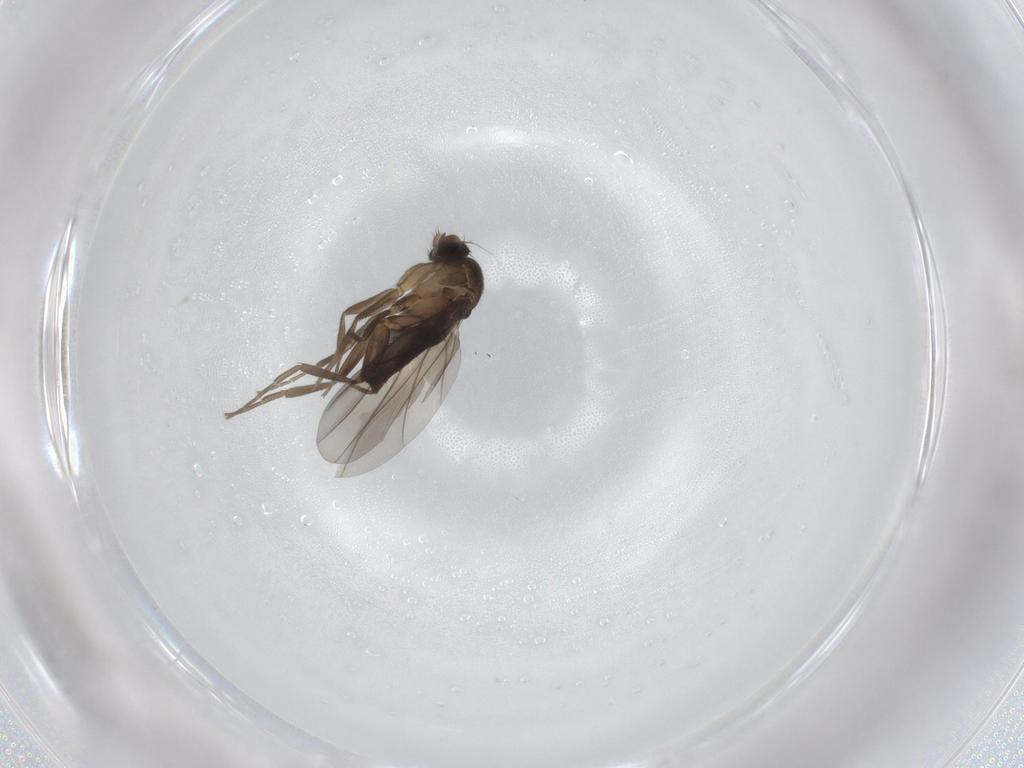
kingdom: Animalia
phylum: Arthropoda
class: Insecta
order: Diptera
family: Phoridae
